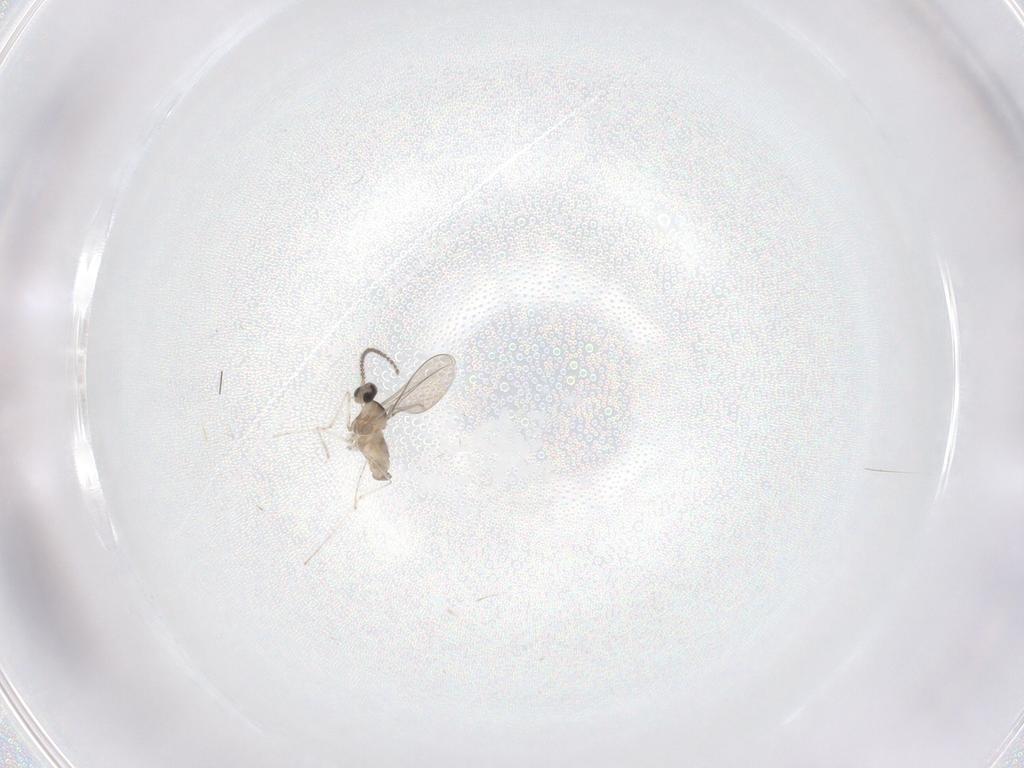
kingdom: Animalia
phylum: Arthropoda
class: Insecta
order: Diptera
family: Cecidomyiidae
